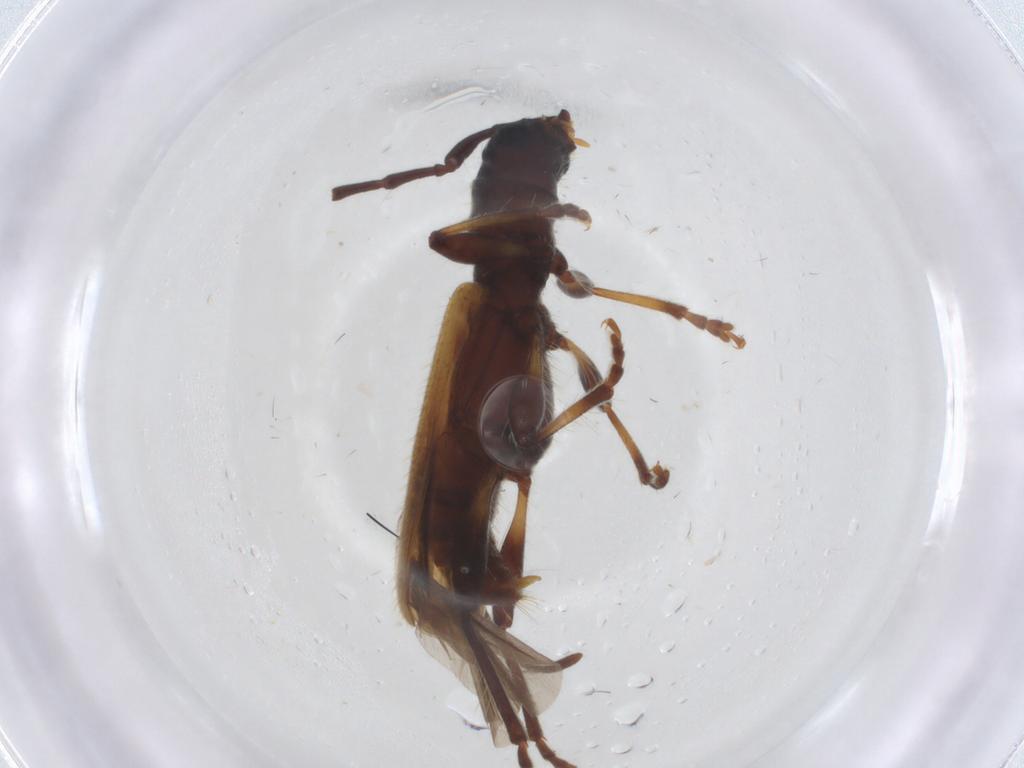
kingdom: Animalia
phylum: Arthropoda
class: Insecta
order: Coleoptera
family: Cerambycidae
